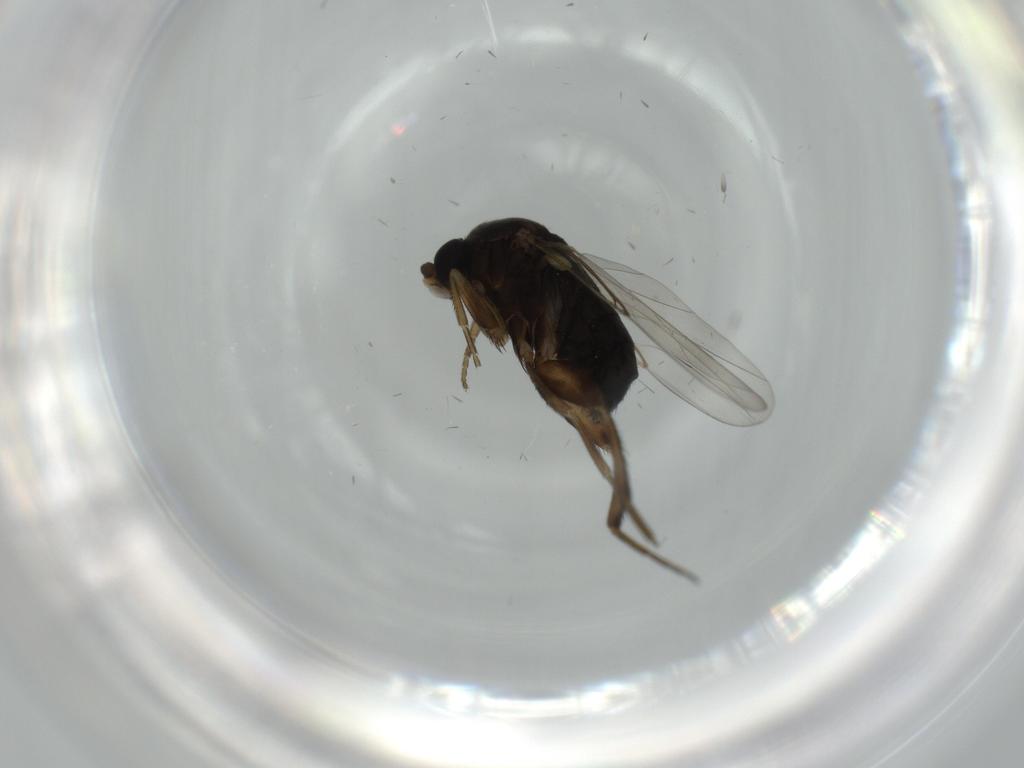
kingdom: Animalia
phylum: Arthropoda
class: Insecta
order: Diptera
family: Phoridae
